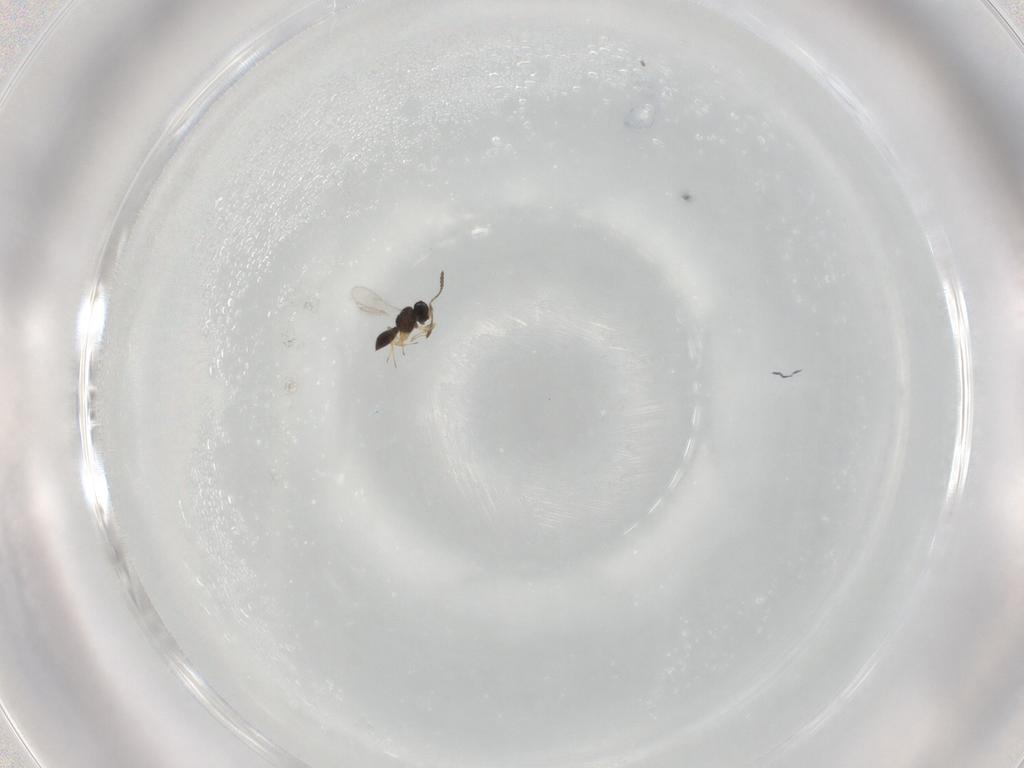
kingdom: Animalia
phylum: Arthropoda
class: Insecta
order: Hymenoptera
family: Scelionidae
